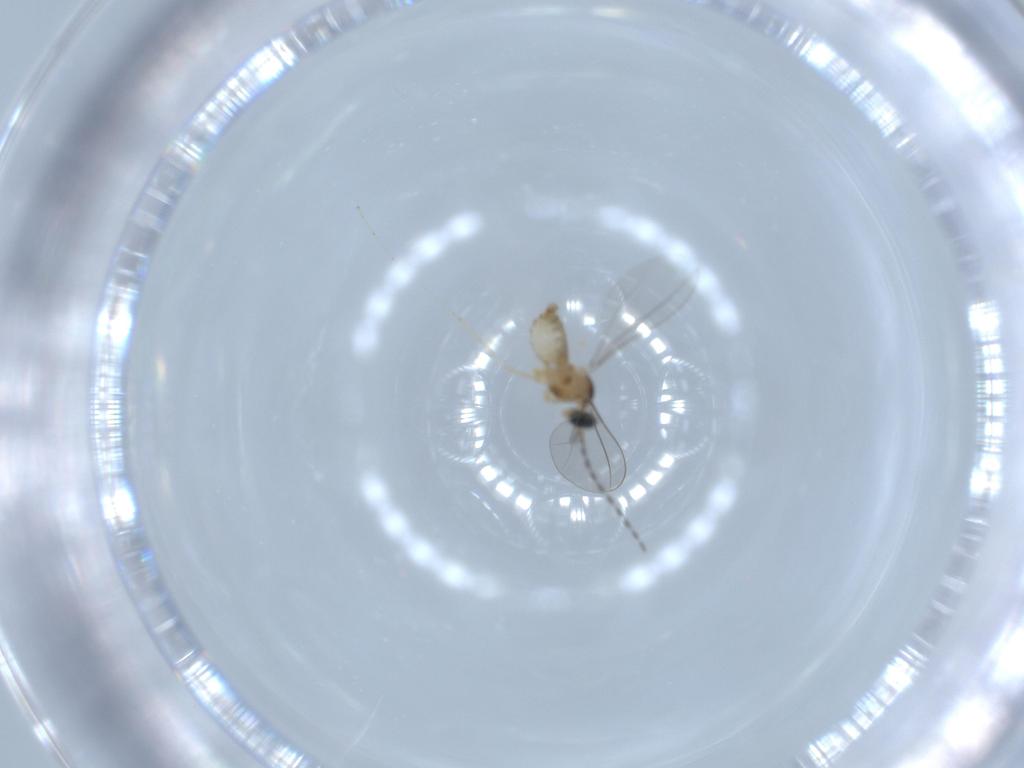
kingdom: Animalia
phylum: Arthropoda
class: Insecta
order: Diptera
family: Cecidomyiidae
